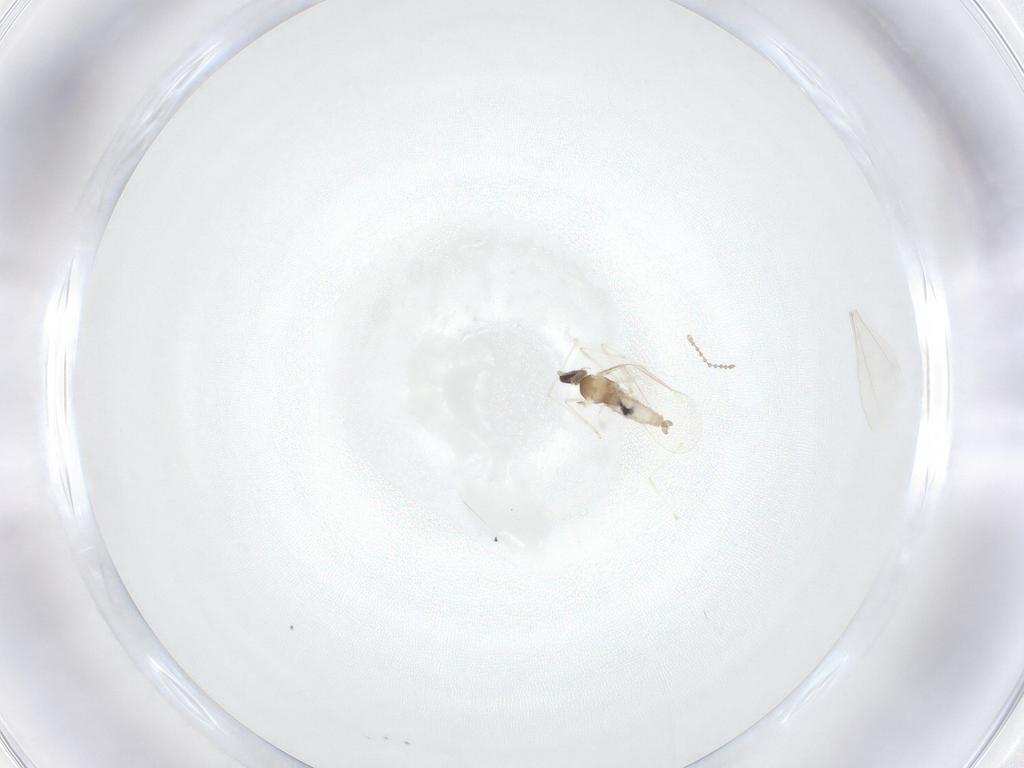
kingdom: Animalia
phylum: Arthropoda
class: Insecta
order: Diptera
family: Cecidomyiidae
